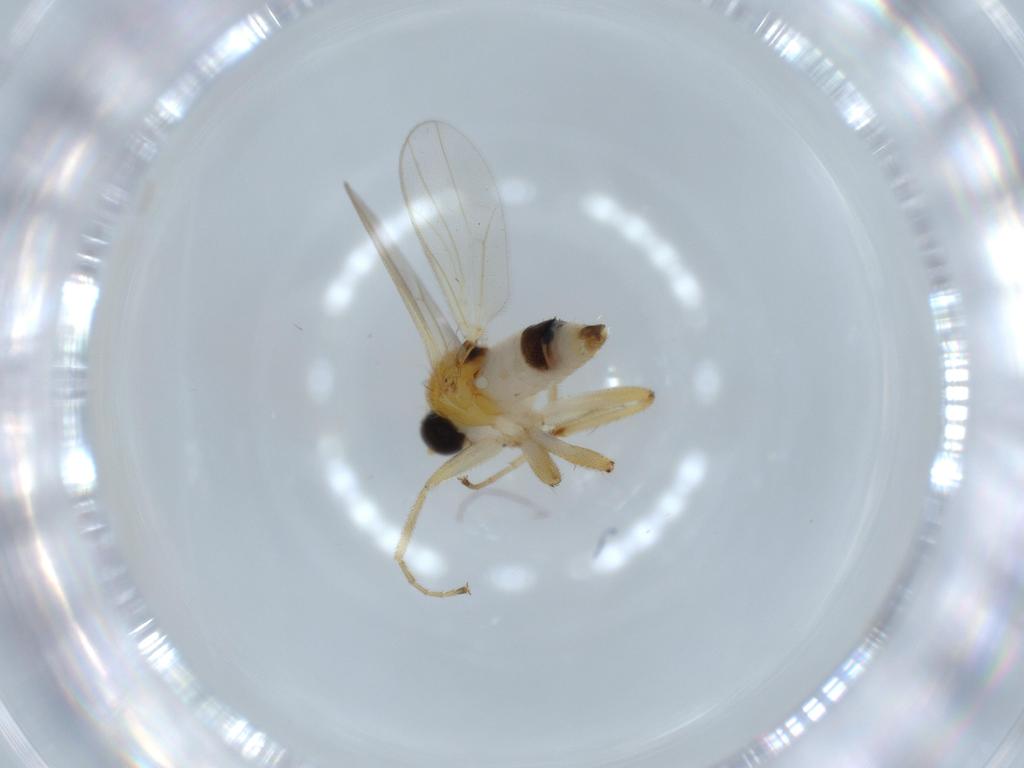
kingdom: Animalia
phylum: Arthropoda
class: Insecta
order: Diptera
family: Hybotidae
